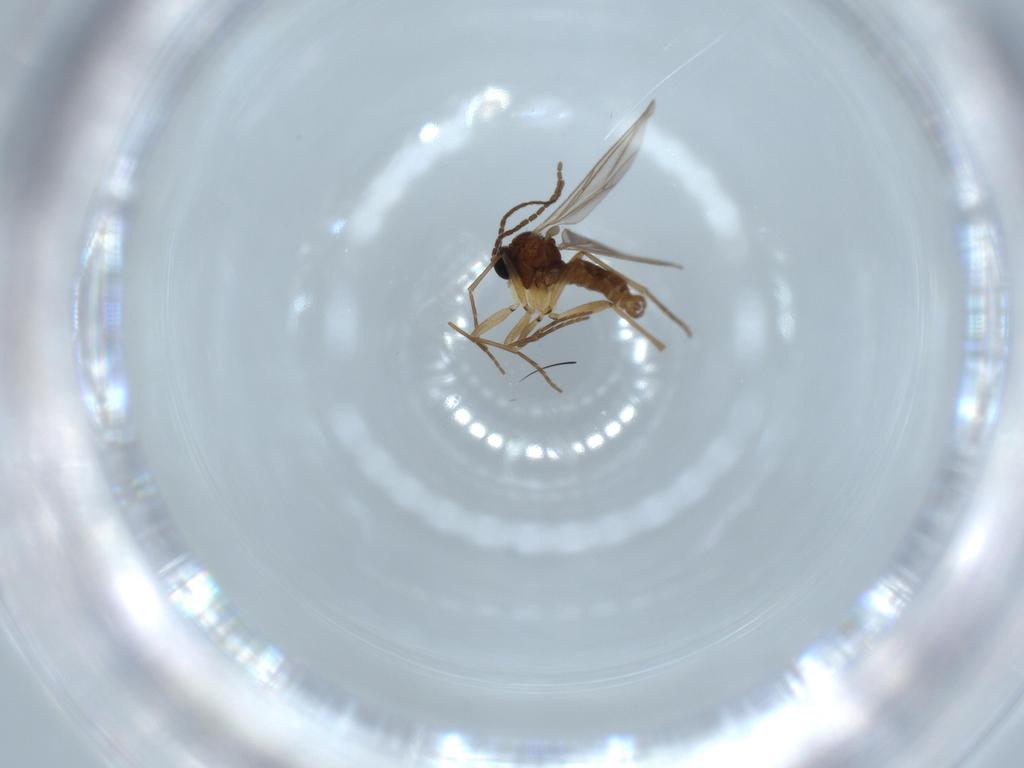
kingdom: Animalia
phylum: Arthropoda
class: Insecta
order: Diptera
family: Sciaridae
